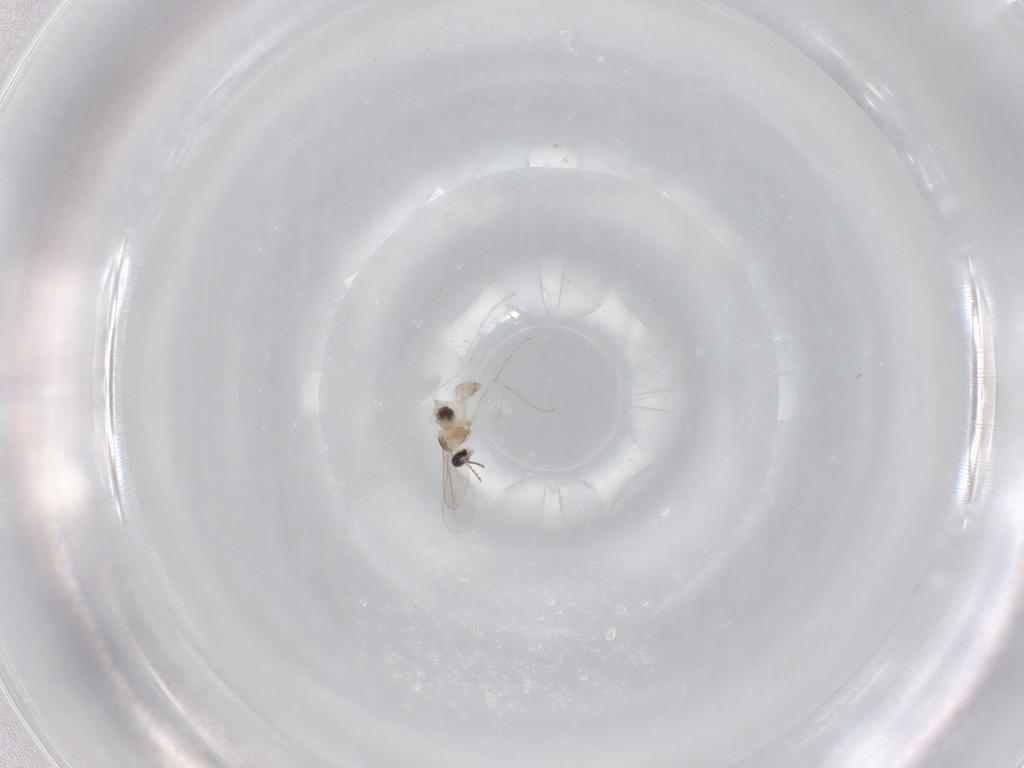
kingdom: Animalia
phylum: Arthropoda
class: Insecta
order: Diptera
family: Cecidomyiidae
